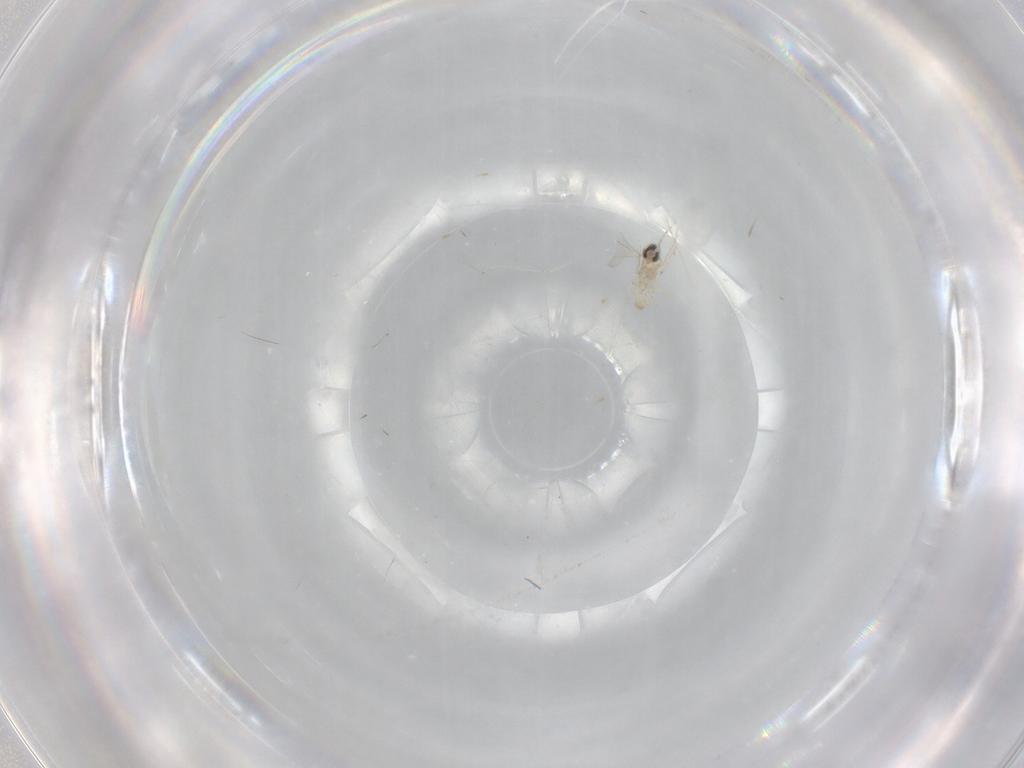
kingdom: Animalia
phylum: Arthropoda
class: Insecta
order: Diptera
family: Cecidomyiidae
